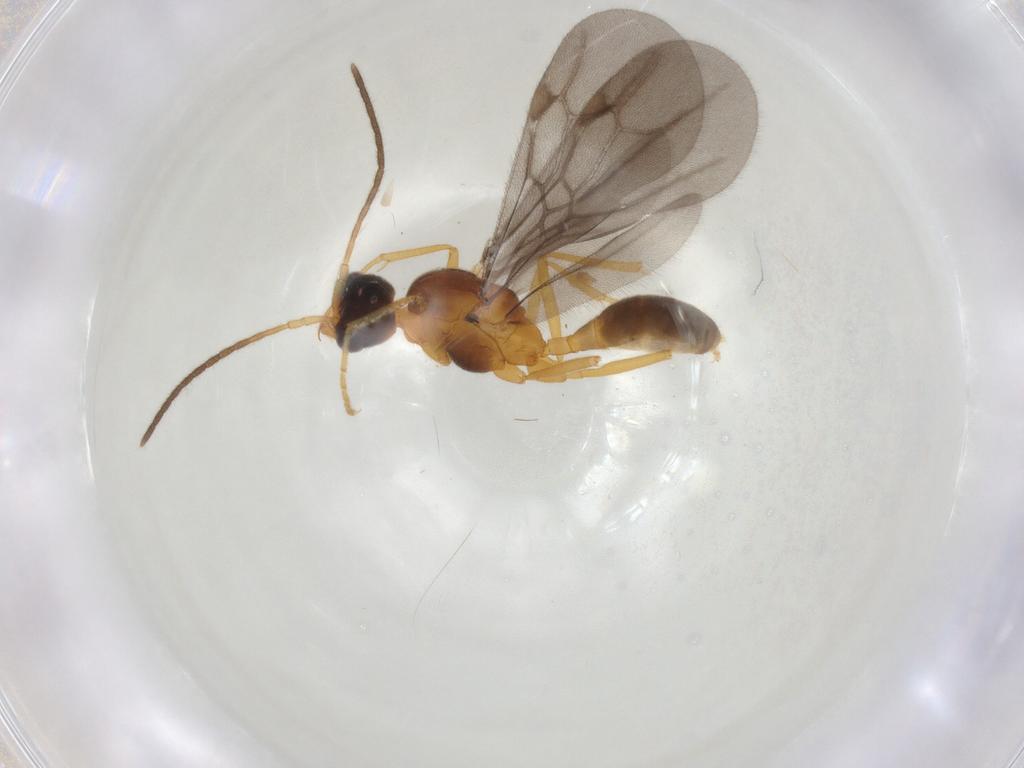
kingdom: Animalia
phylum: Arthropoda
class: Insecta
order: Hymenoptera
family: Formicidae
